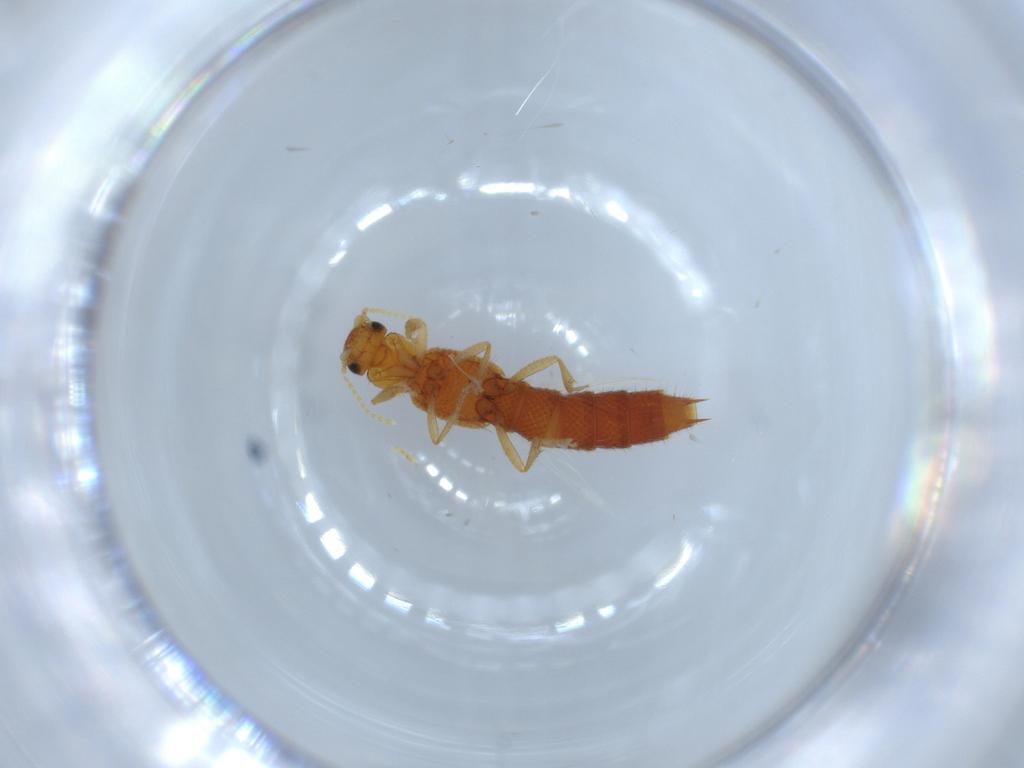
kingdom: Animalia
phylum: Arthropoda
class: Insecta
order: Coleoptera
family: Staphylinidae
